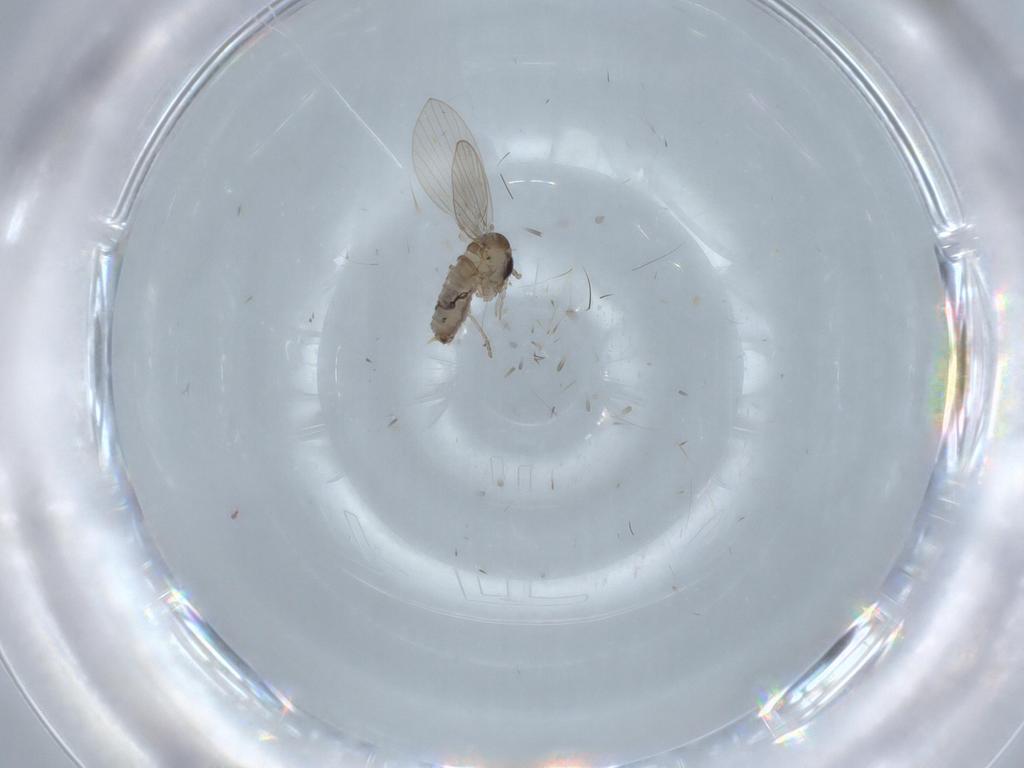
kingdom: Animalia
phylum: Arthropoda
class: Insecta
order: Diptera
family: Psychodidae
